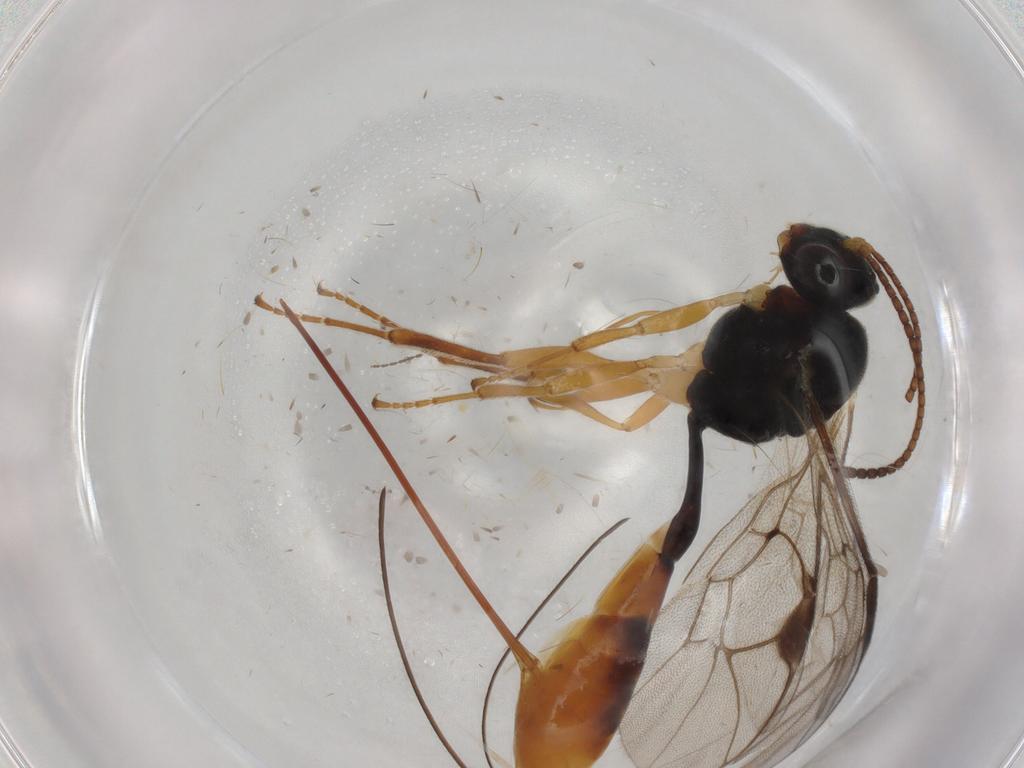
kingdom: Animalia
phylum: Arthropoda
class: Insecta
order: Hymenoptera
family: Ichneumonidae
